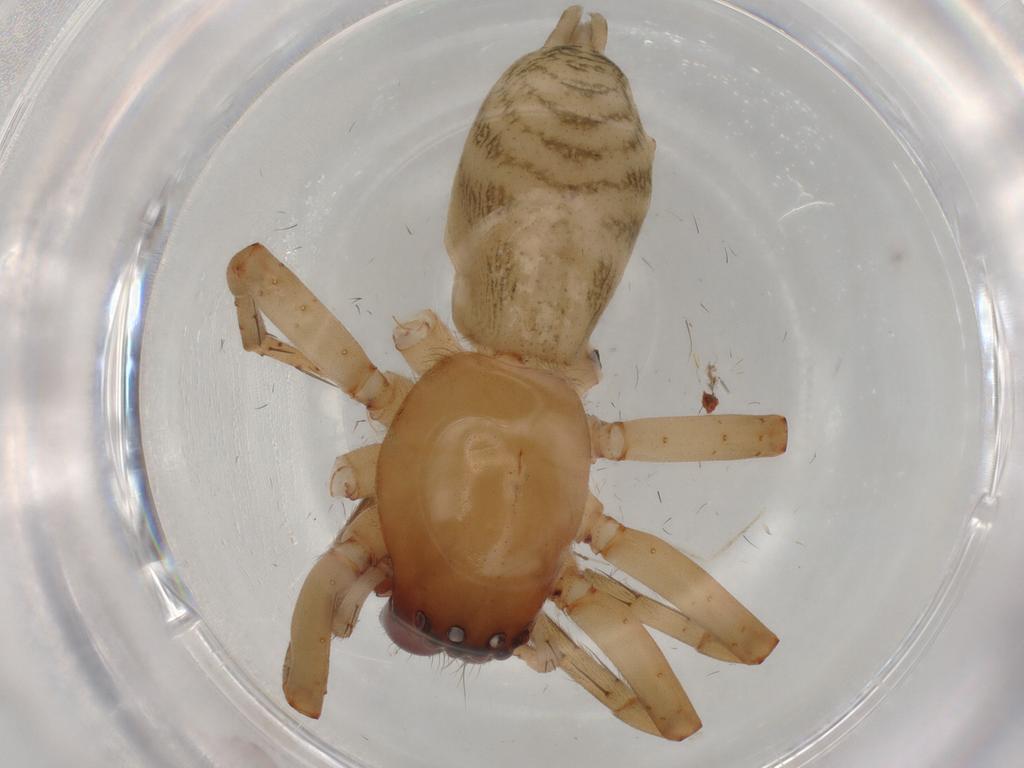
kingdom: Animalia
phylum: Arthropoda
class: Arachnida
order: Araneae
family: Anyphaenidae
